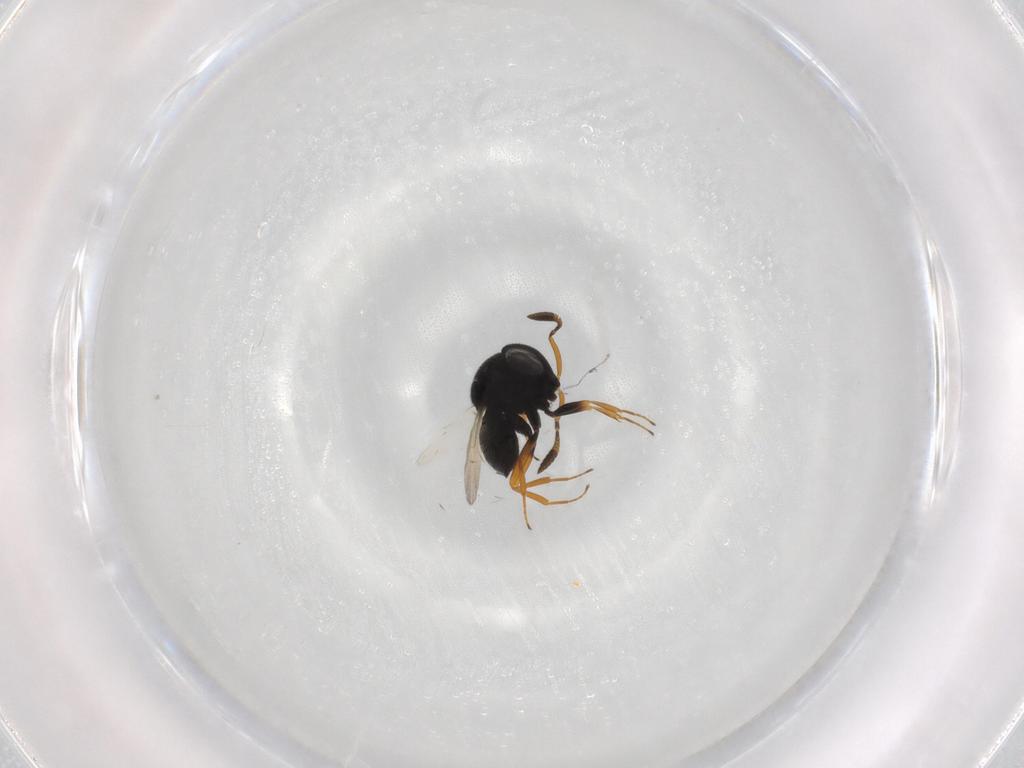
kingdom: Animalia
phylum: Arthropoda
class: Insecta
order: Hymenoptera
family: Scelionidae
